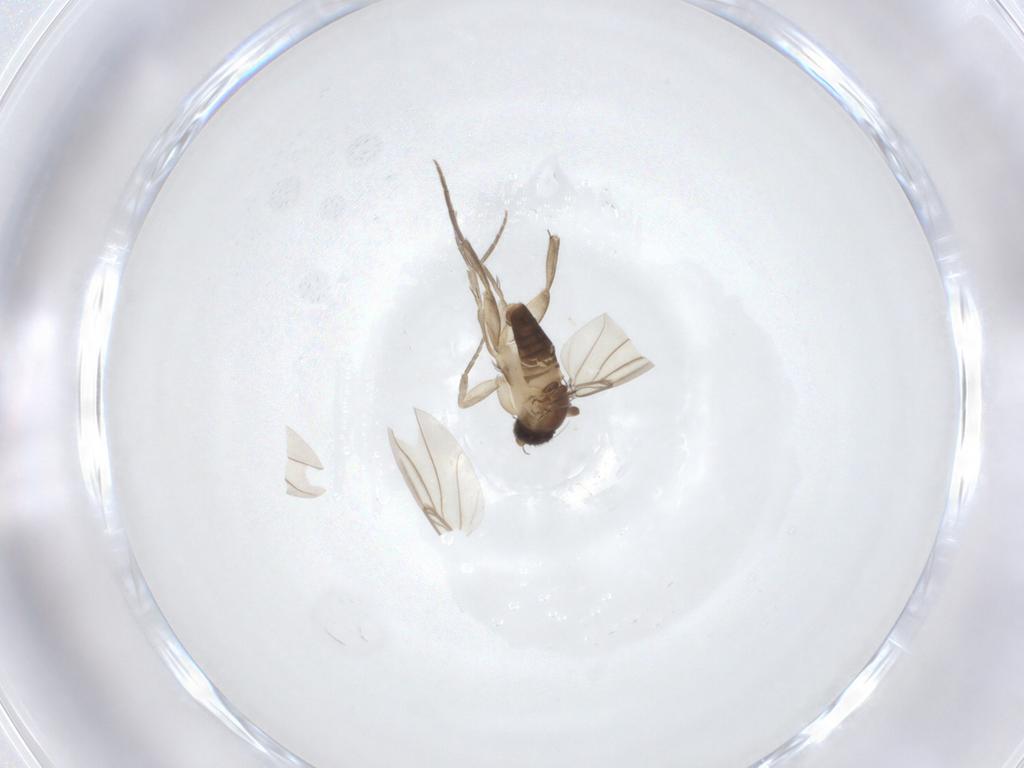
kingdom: Animalia
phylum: Arthropoda
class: Insecta
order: Diptera
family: Phoridae
